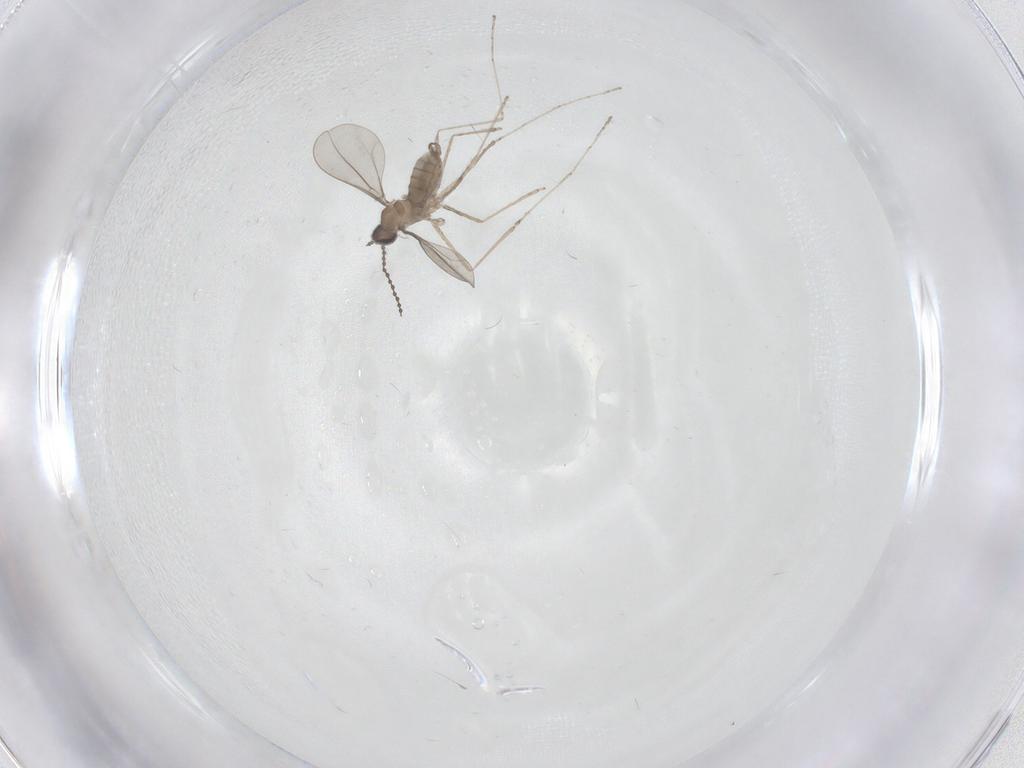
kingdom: Animalia
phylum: Arthropoda
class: Insecta
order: Diptera
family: Cecidomyiidae
